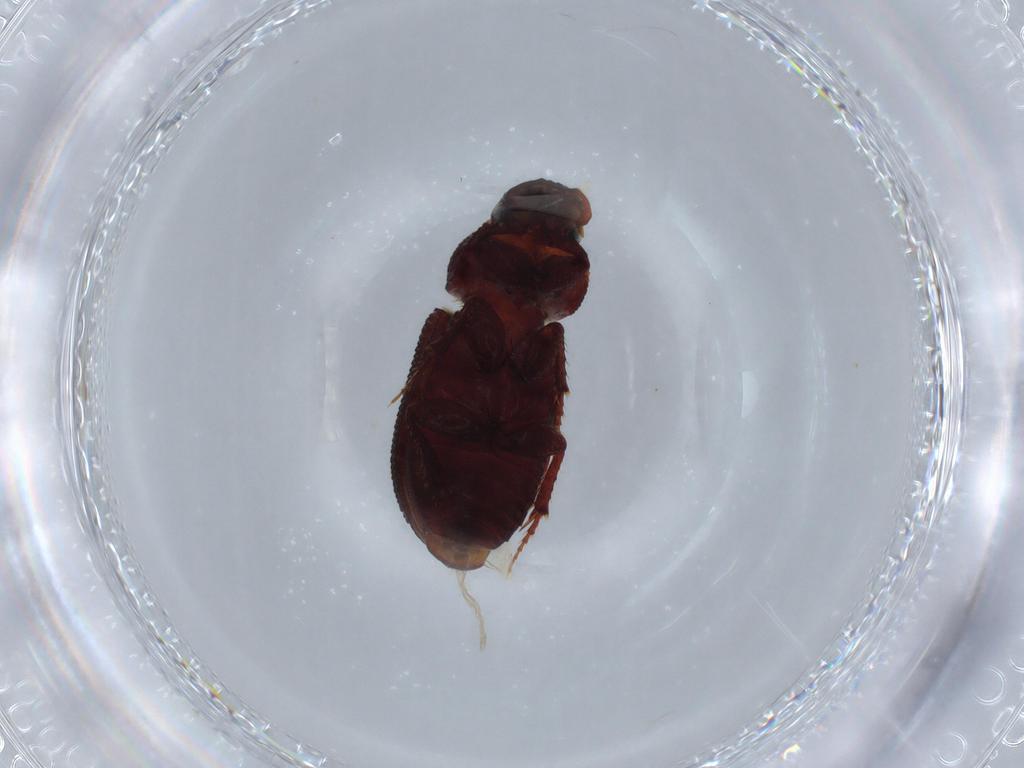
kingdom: Animalia
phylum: Arthropoda
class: Insecta
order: Coleoptera
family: Scarabaeidae
